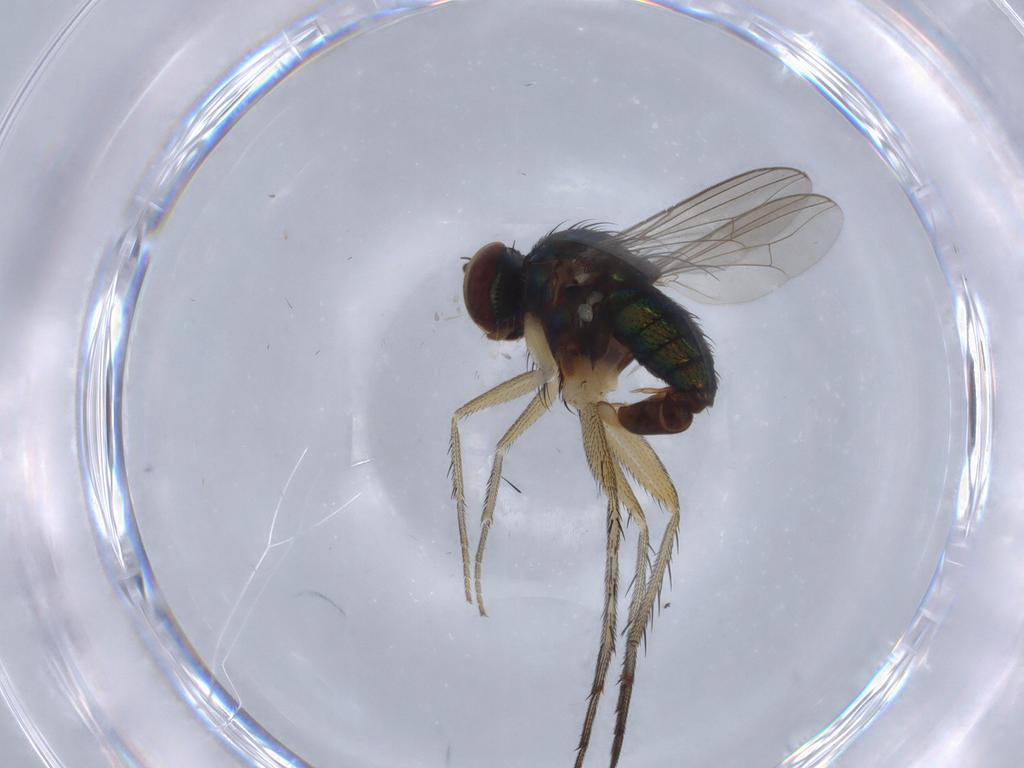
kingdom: Animalia
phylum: Arthropoda
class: Insecta
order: Diptera
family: Dolichopodidae
